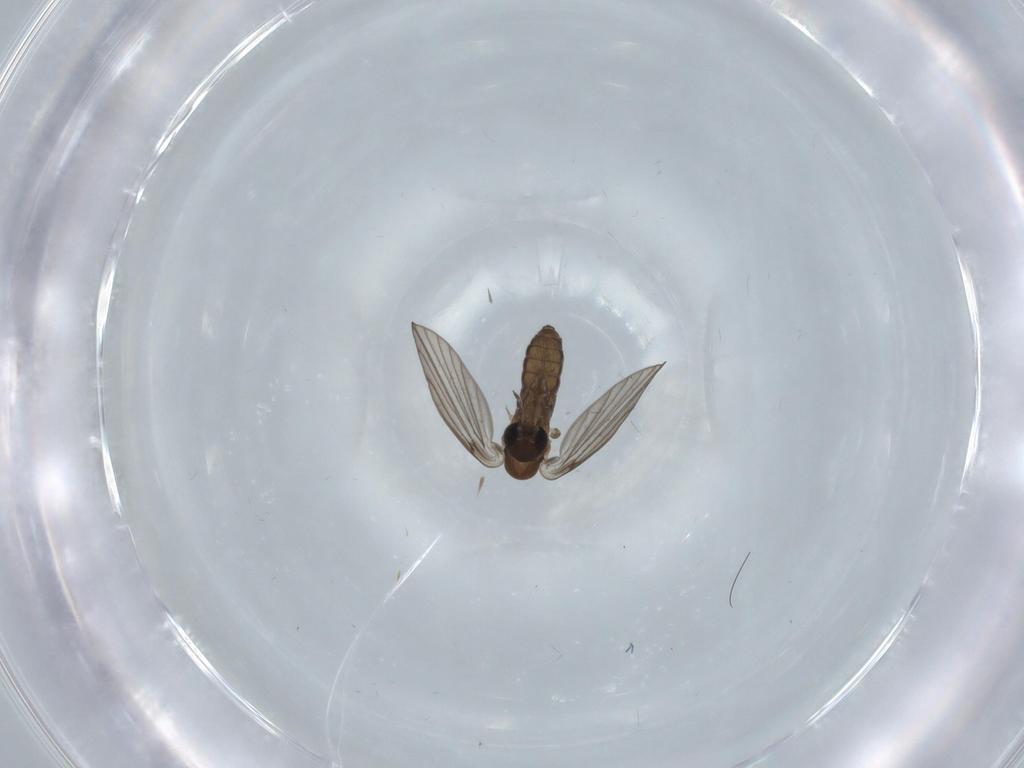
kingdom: Animalia
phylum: Arthropoda
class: Insecta
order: Diptera
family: Psychodidae
